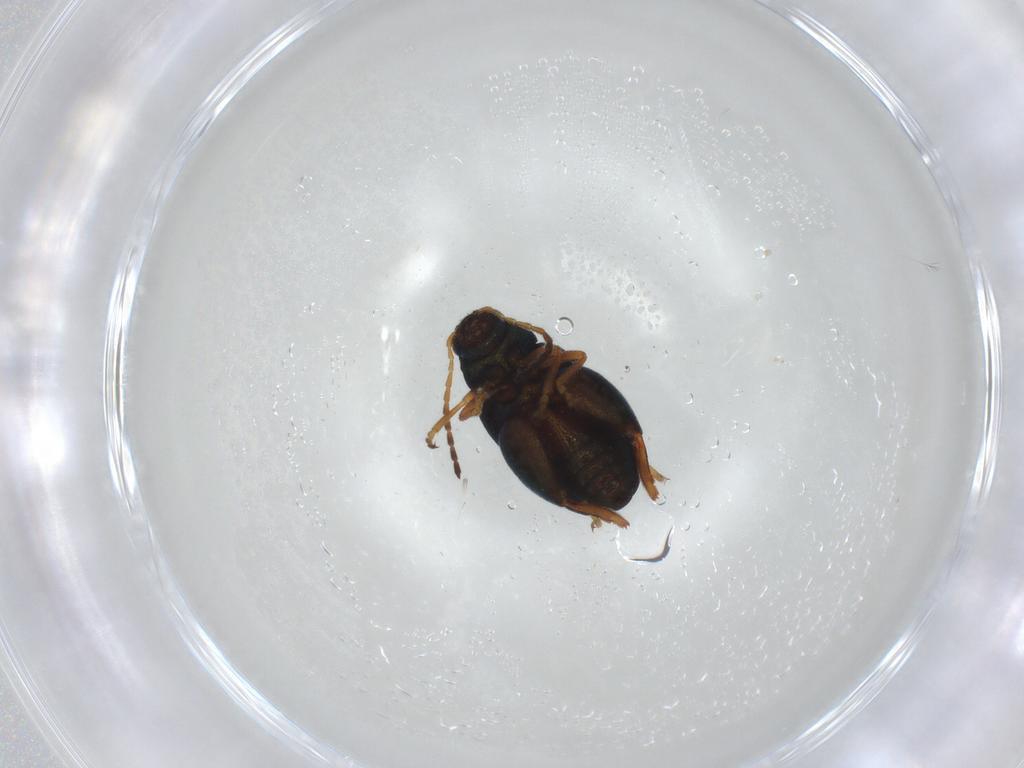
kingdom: Animalia
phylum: Arthropoda
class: Insecta
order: Coleoptera
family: Chrysomelidae
